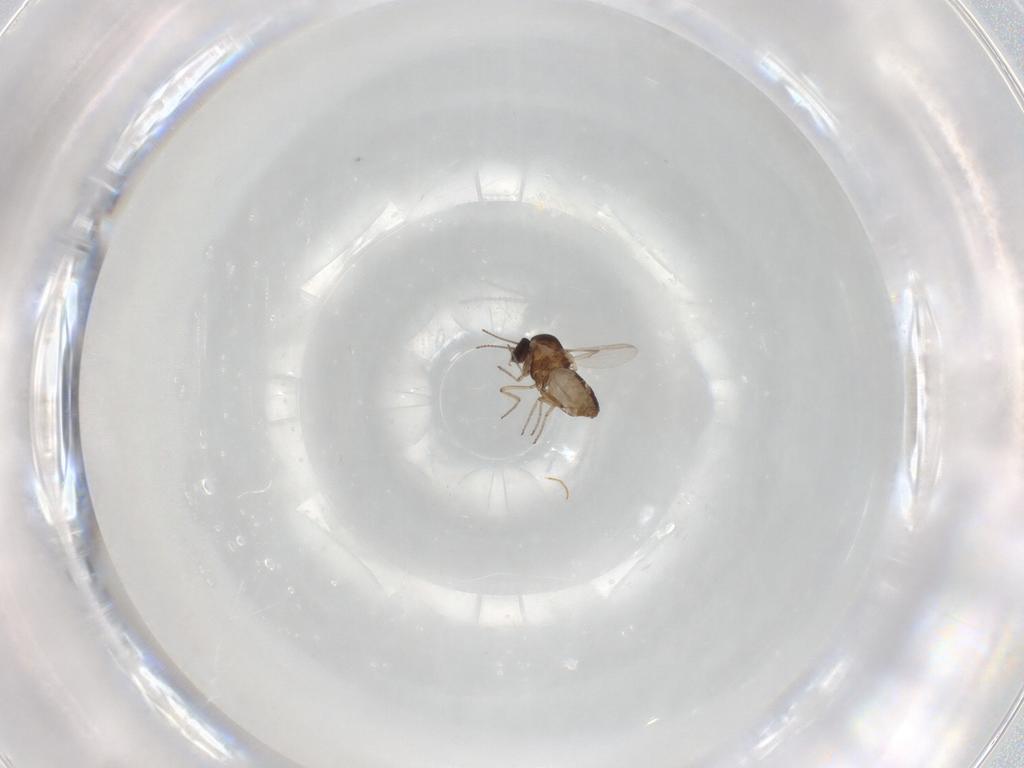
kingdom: Animalia
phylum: Arthropoda
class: Insecta
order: Diptera
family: Ceratopogonidae
